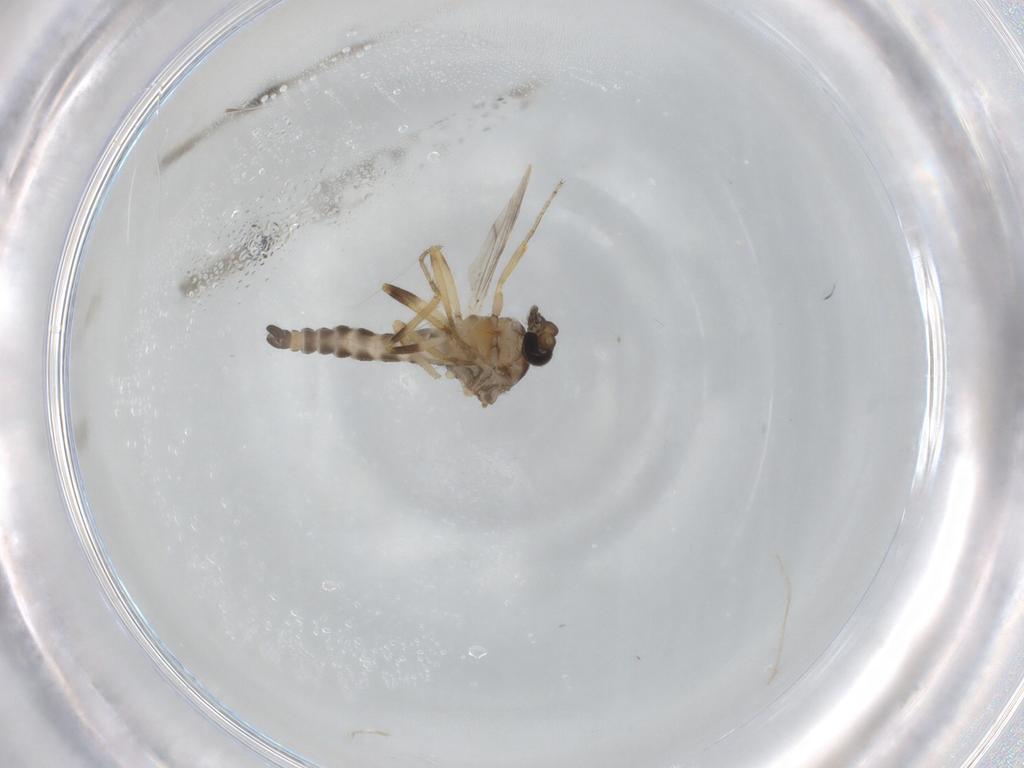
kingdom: Animalia
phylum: Arthropoda
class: Insecta
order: Diptera
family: Ceratopogonidae
